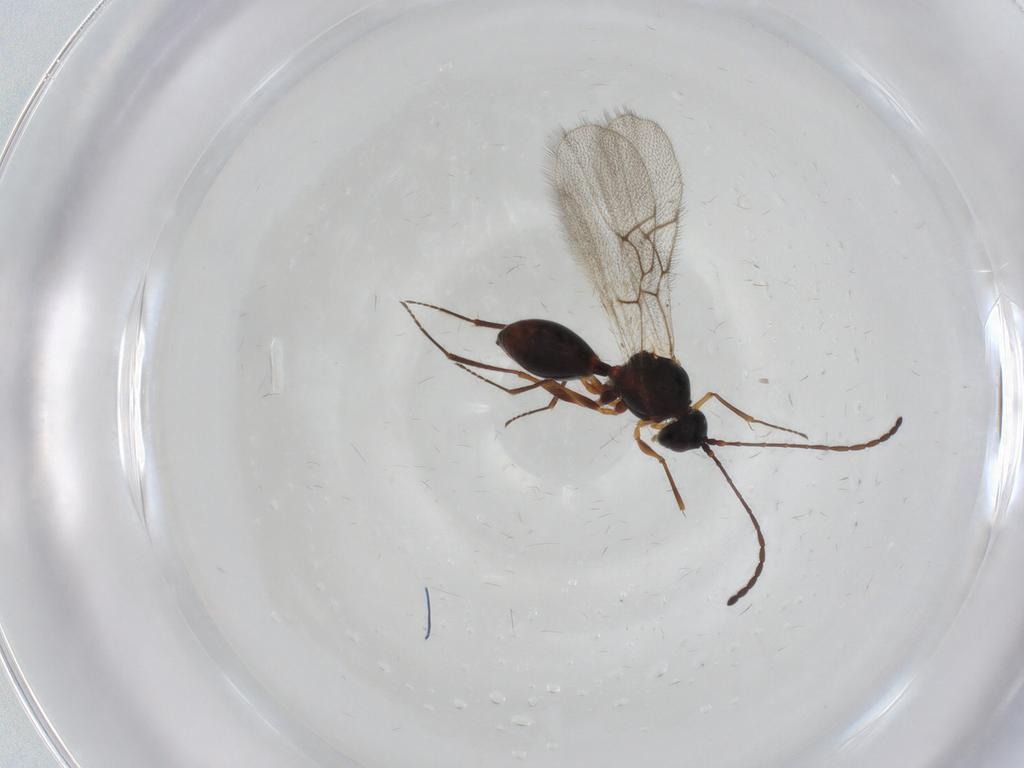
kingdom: Animalia
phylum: Arthropoda
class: Insecta
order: Hymenoptera
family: Figitidae
